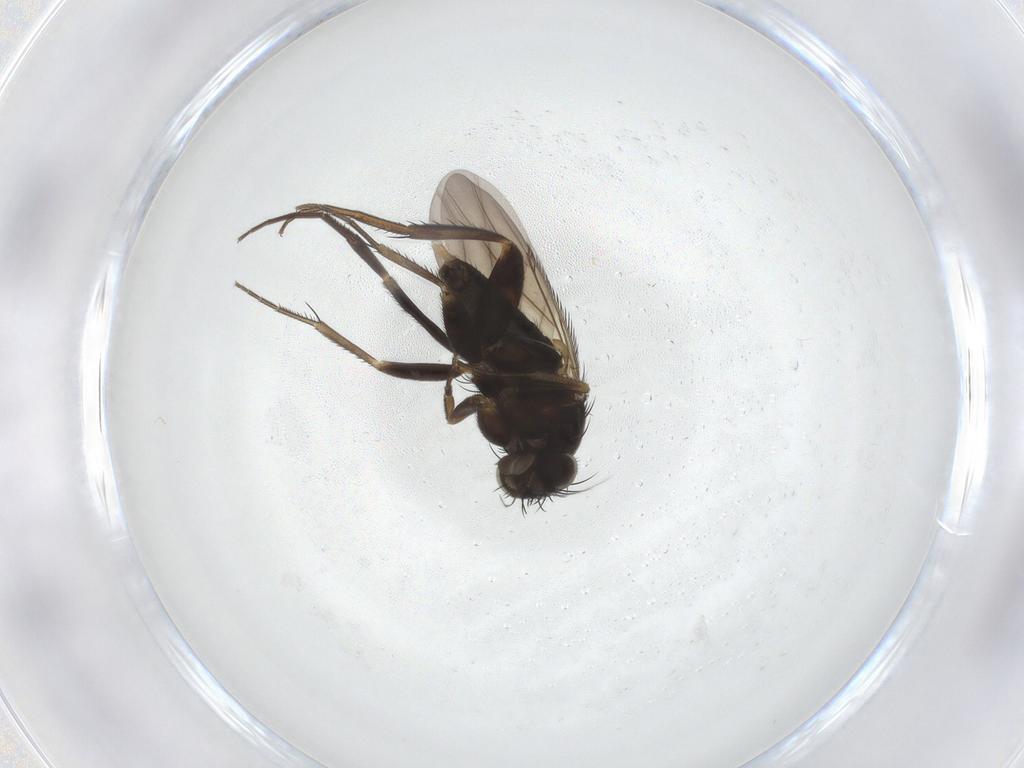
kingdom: Animalia
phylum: Arthropoda
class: Insecta
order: Diptera
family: Phoridae
